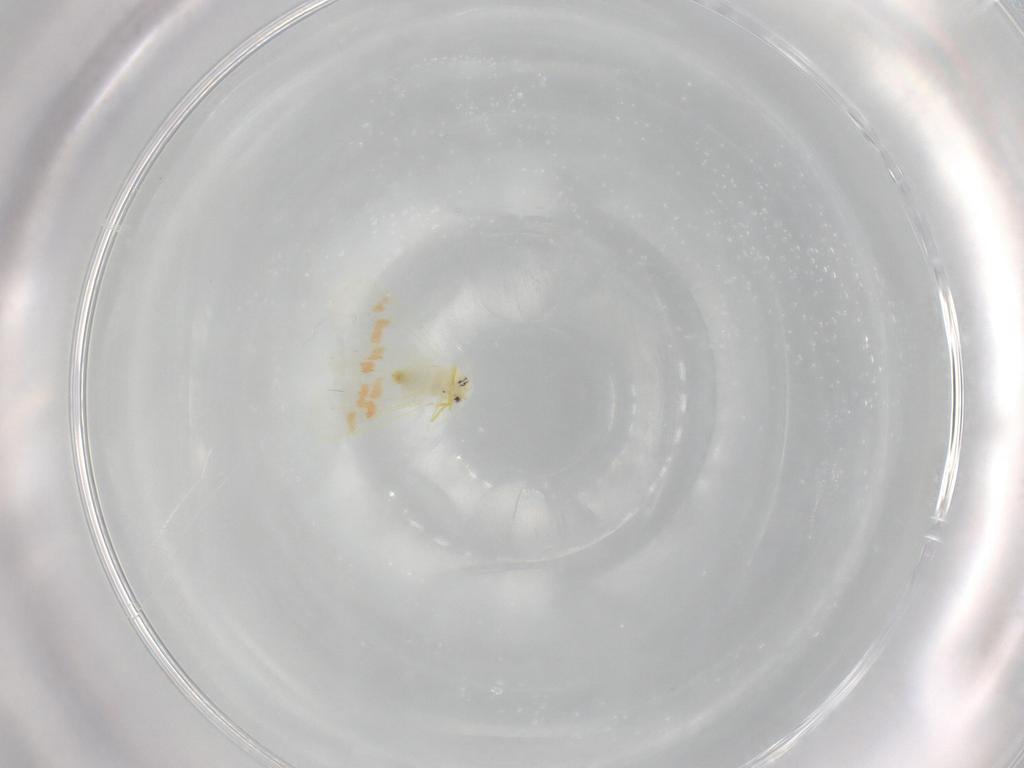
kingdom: Animalia
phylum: Arthropoda
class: Insecta
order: Hemiptera
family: Aleyrodidae
